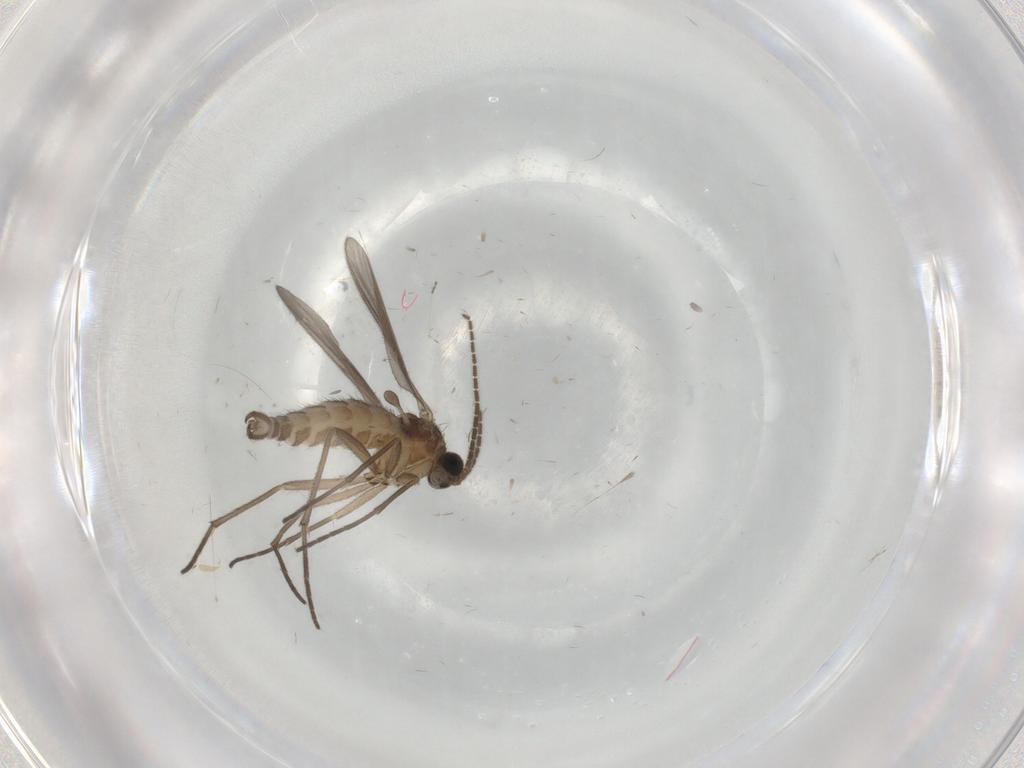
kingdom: Animalia
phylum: Arthropoda
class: Insecta
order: Diptera
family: Sciaridae
